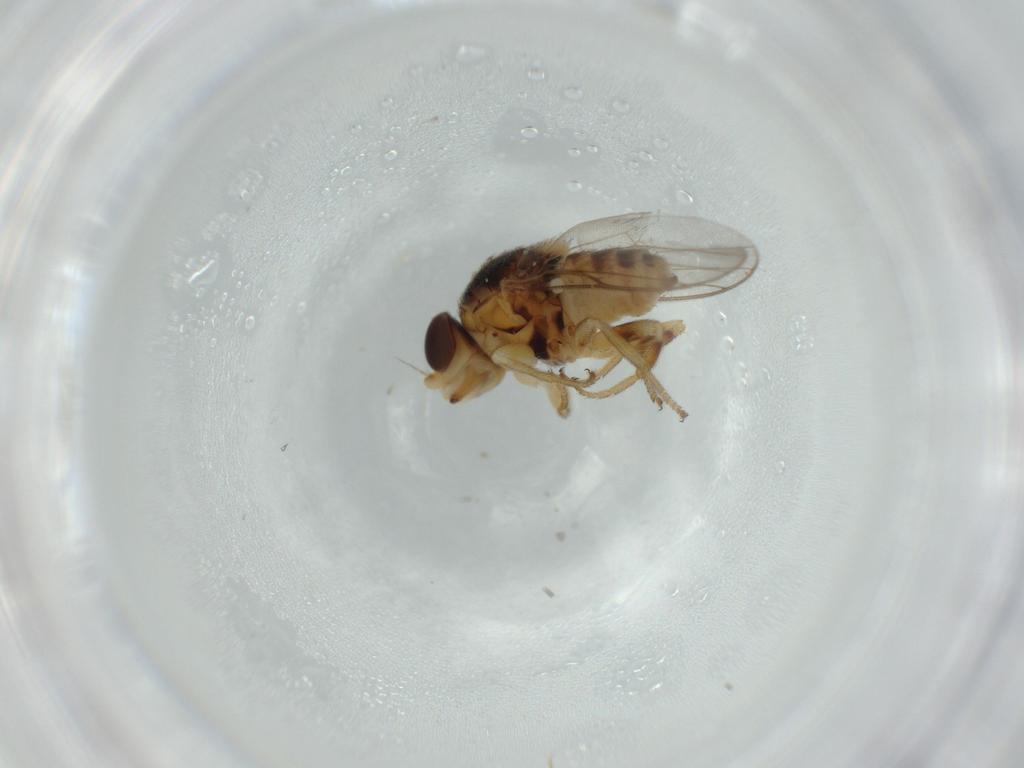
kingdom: Animalia
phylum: Arthropoda
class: Insecta
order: Diptera
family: Chloropidae
